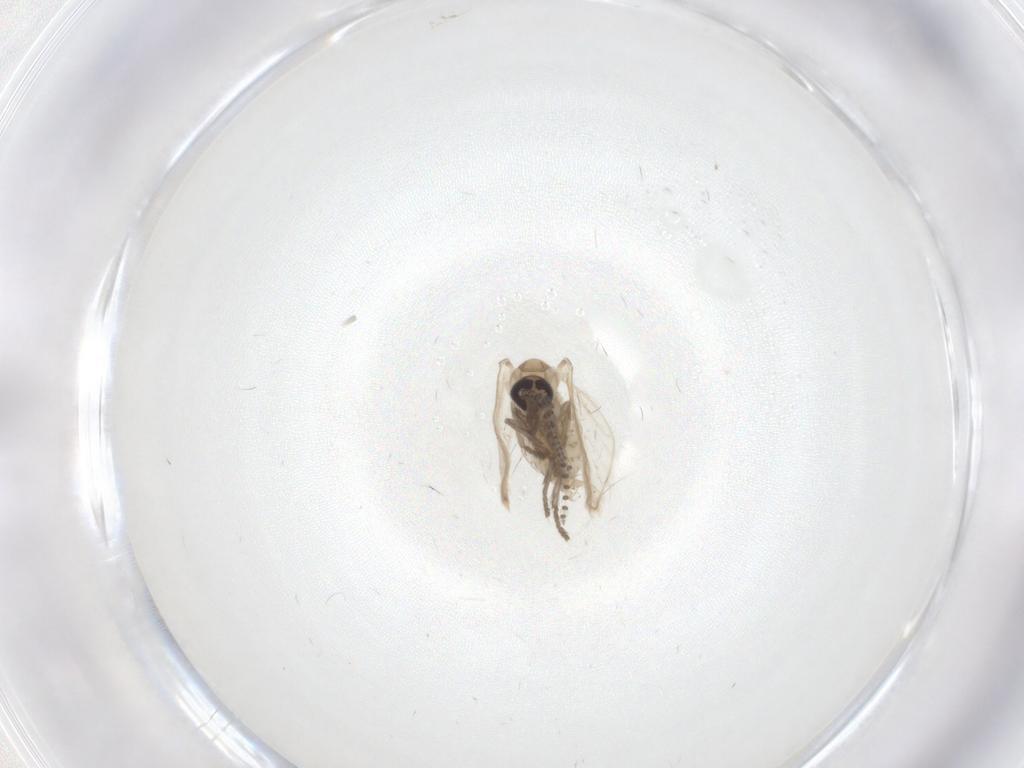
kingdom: Animalia
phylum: Arthropoda
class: Insecta
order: Diptera
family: Psychodidae
